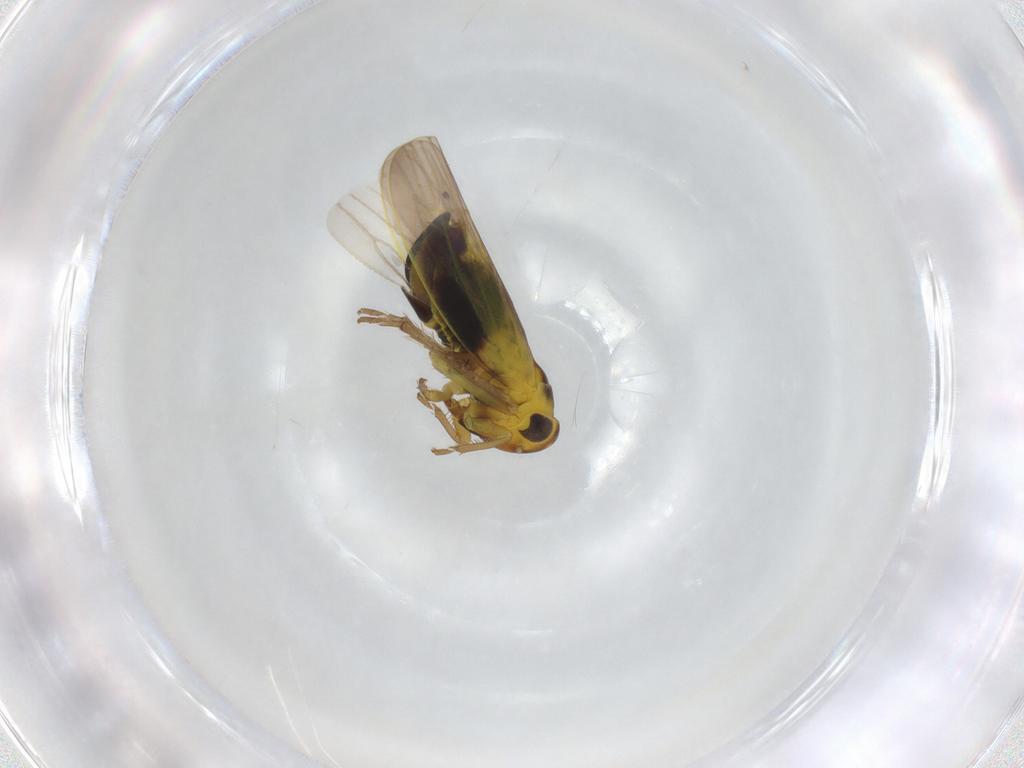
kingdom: Animalia
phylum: Arthropoda
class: Insecta
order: Hemiptera
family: Cicadellidae
